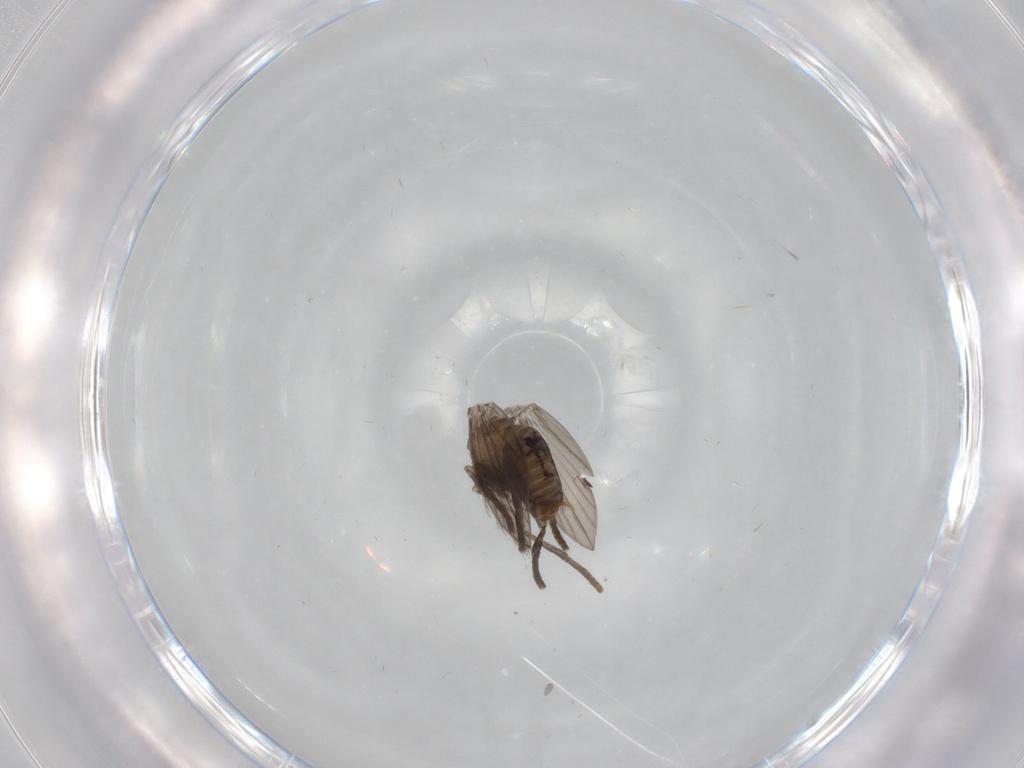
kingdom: Animalia
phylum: Arthropoda
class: Insecta
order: Diptera
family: Psychodidae
